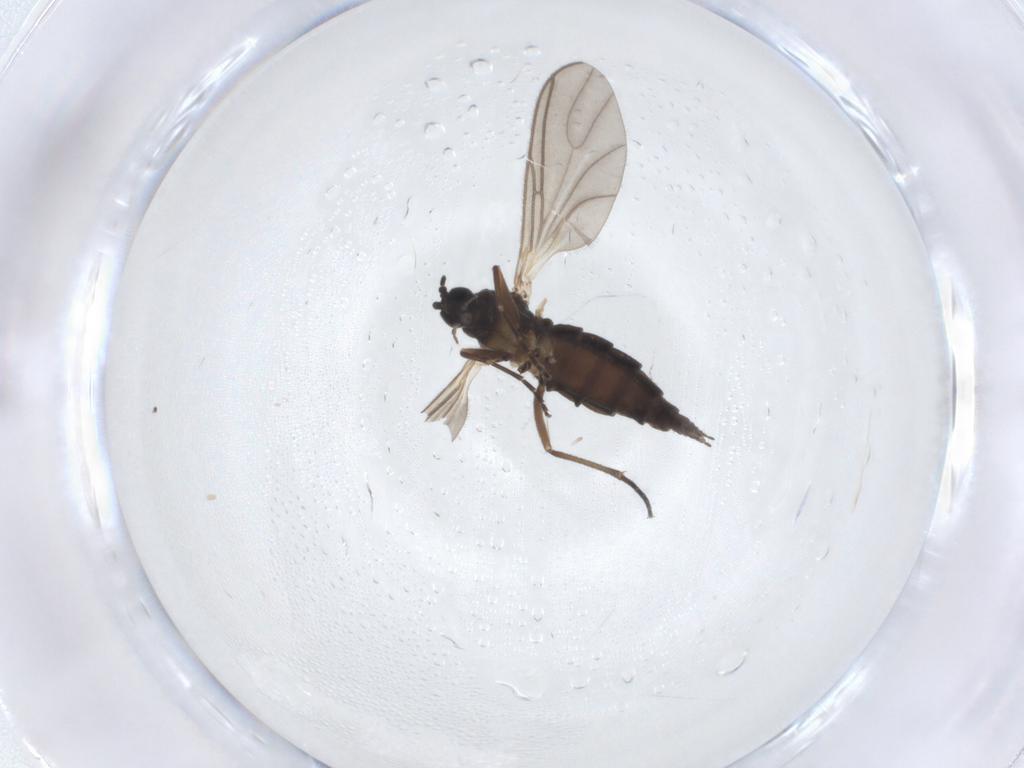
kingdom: Animalia
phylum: Arthropoda
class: Insecta
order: Diptera
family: Sciaridae
